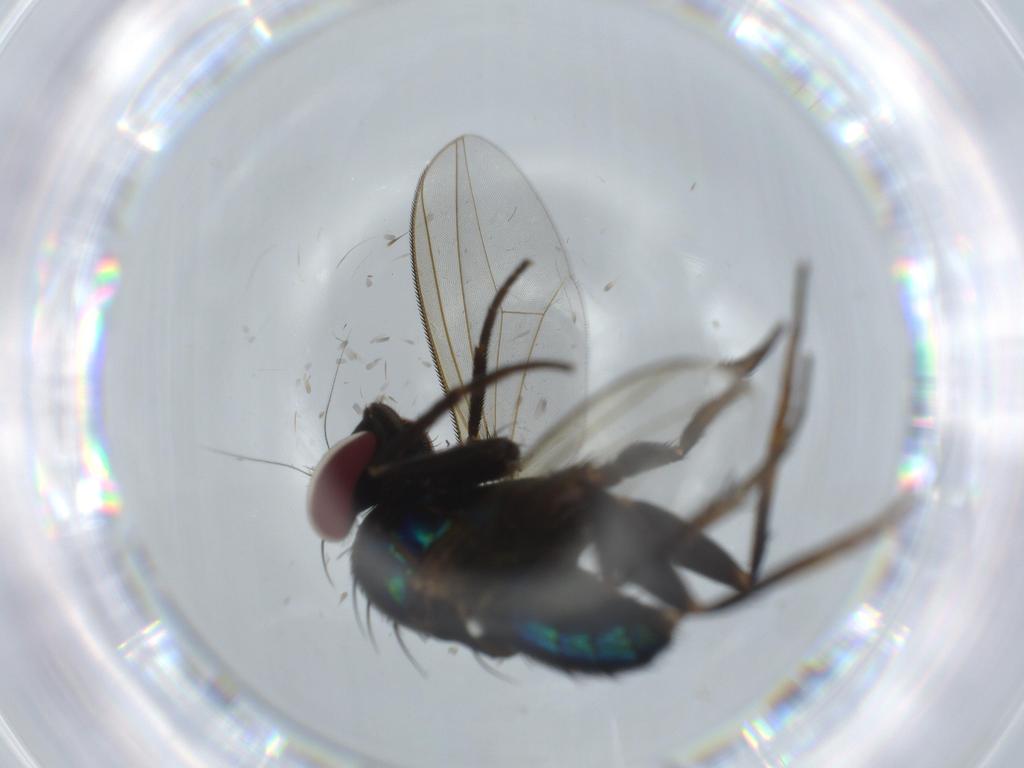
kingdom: Animalia
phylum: Arthropoda
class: Insecta
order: Diptera
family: Dolichopodidae
